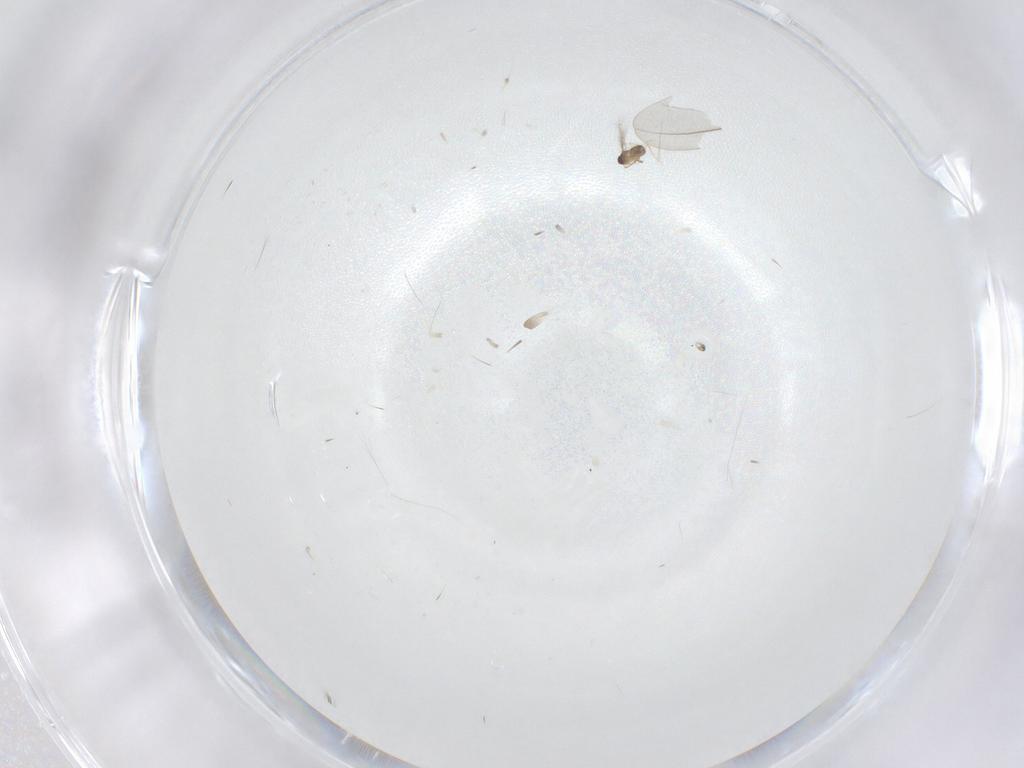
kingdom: Animalia
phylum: Arthropoda
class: Insecta
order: Hymenoptera
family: Mymaridae
